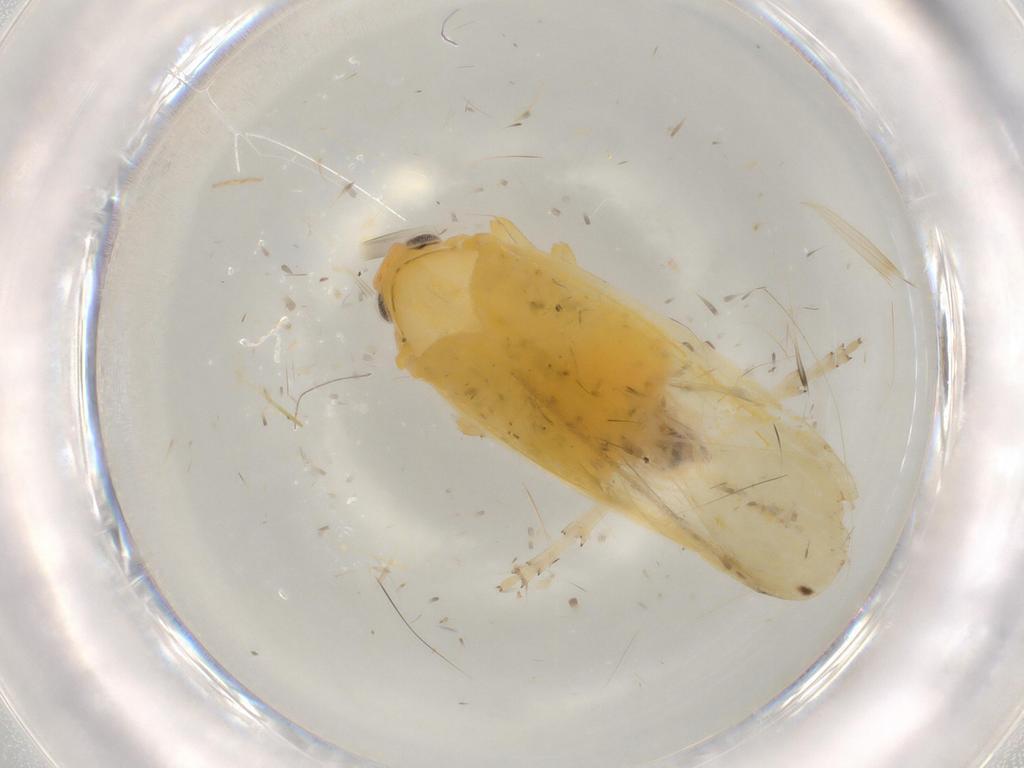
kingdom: Animalia
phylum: Arthropoda
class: Insecta
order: Hemiptera
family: Rhyparochromidae
